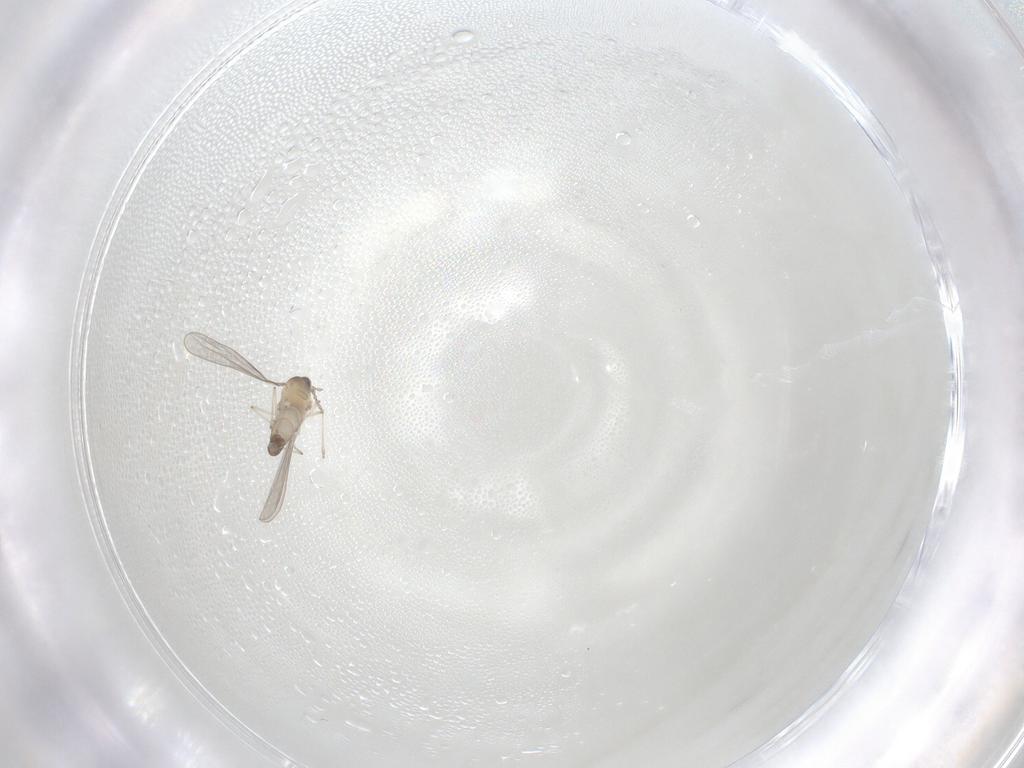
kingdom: Animalia
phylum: Arthropoda
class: Insecta
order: Diptera
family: Cecidomyiidae
